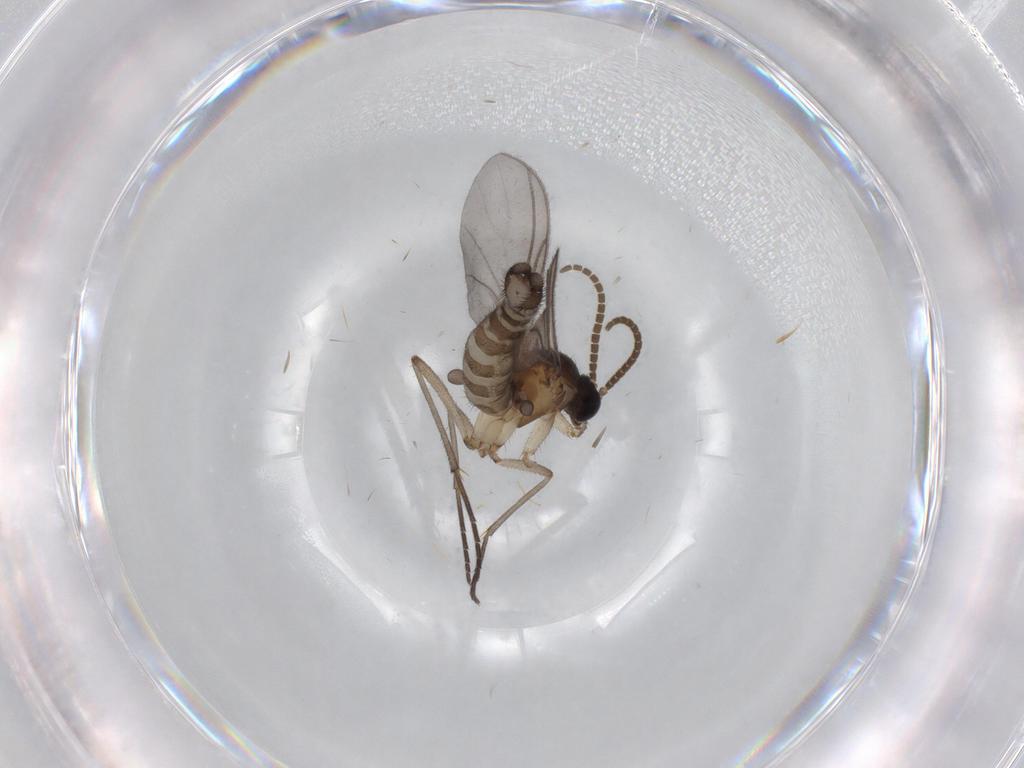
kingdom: Animalia
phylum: Arthropoda
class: Insecta
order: Diptera
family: Chironomidae
